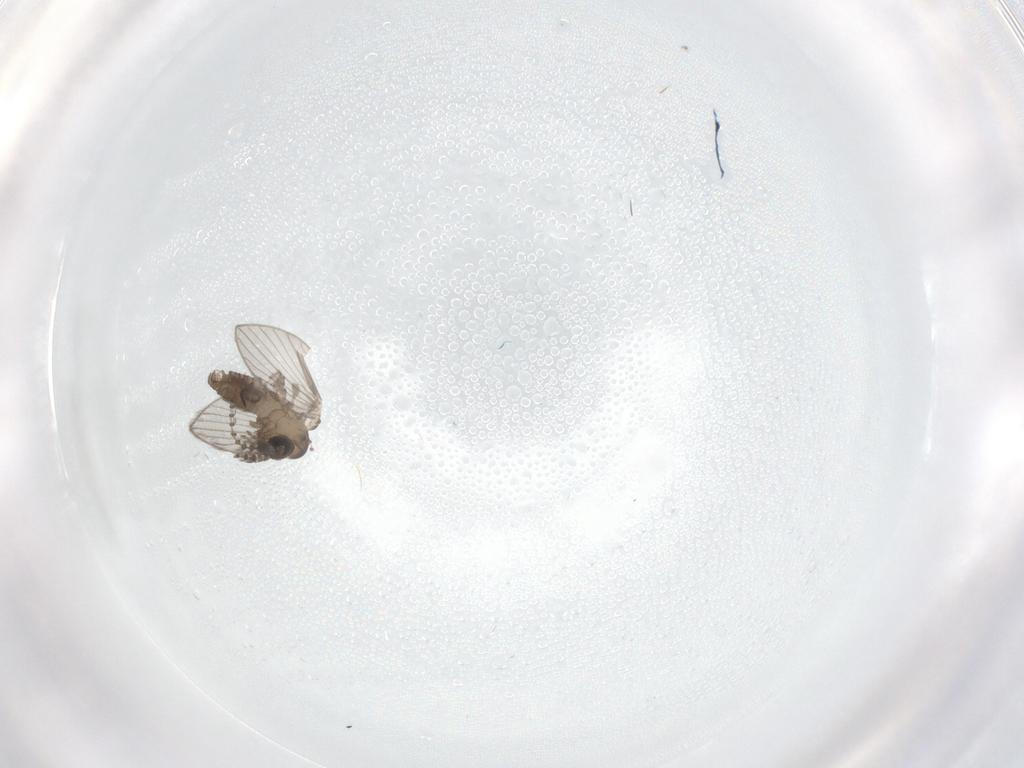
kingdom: Animalia
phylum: Arthropoda
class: Insecta
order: Diptera
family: Psychodidae
